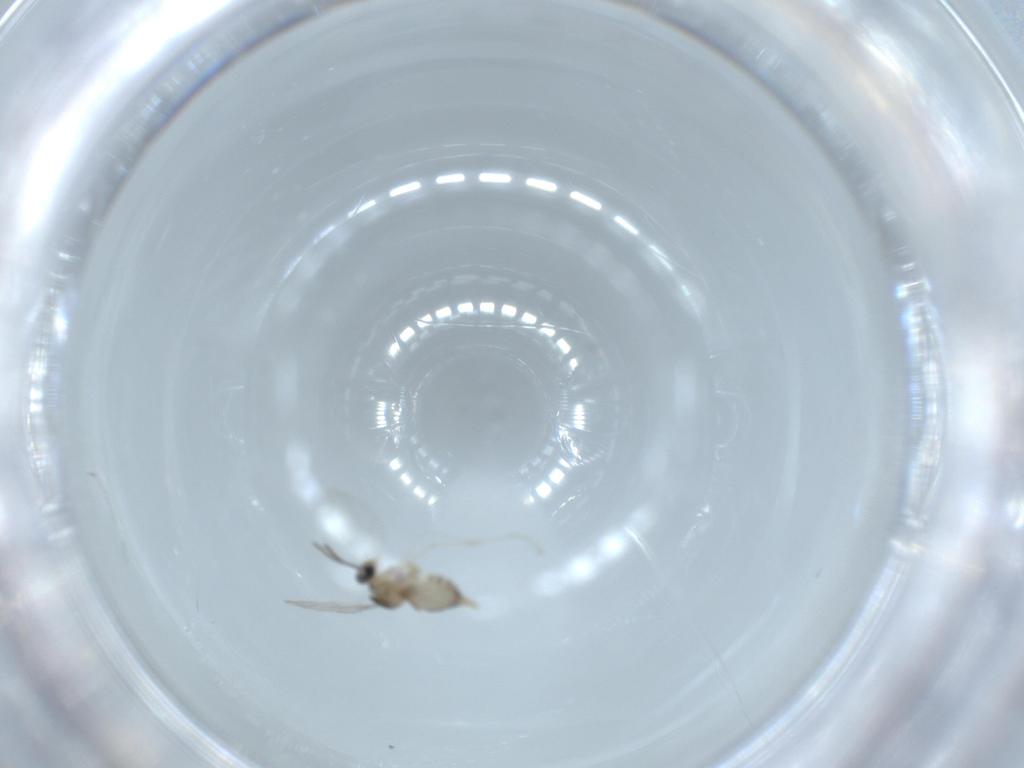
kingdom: Animalia
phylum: Arthropoda
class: Insecta
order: Diptera
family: Cecidomyiidae
